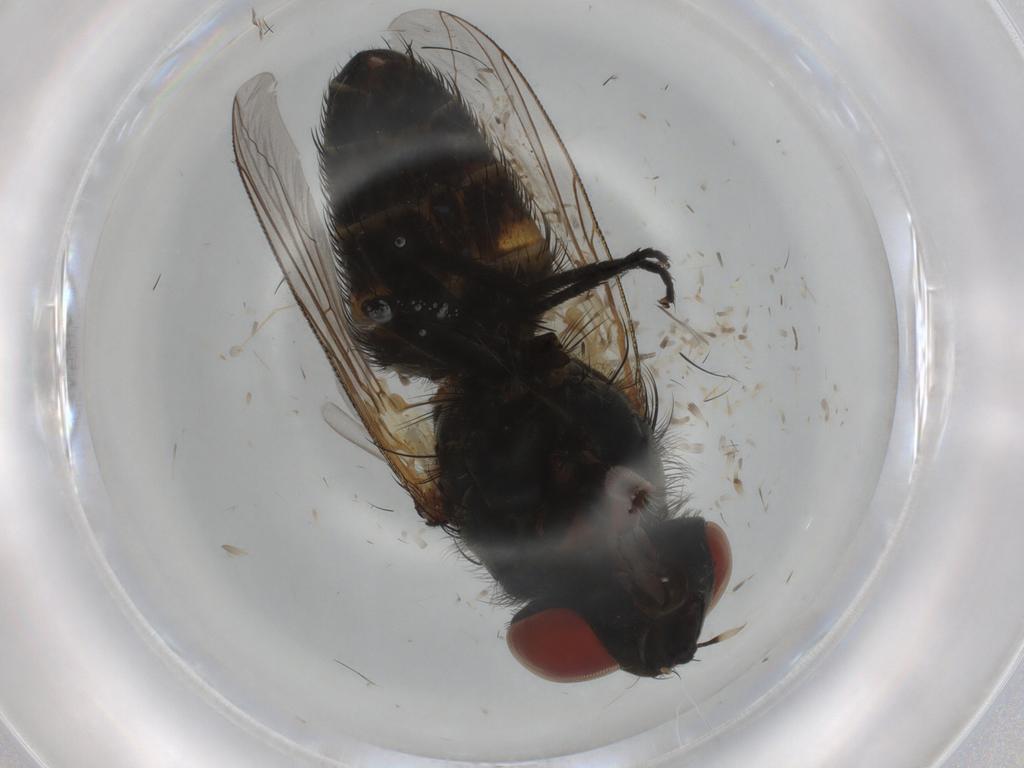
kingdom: Animalia
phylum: Arthropoda
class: Insecta
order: Diptera
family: Sarcophagidae
